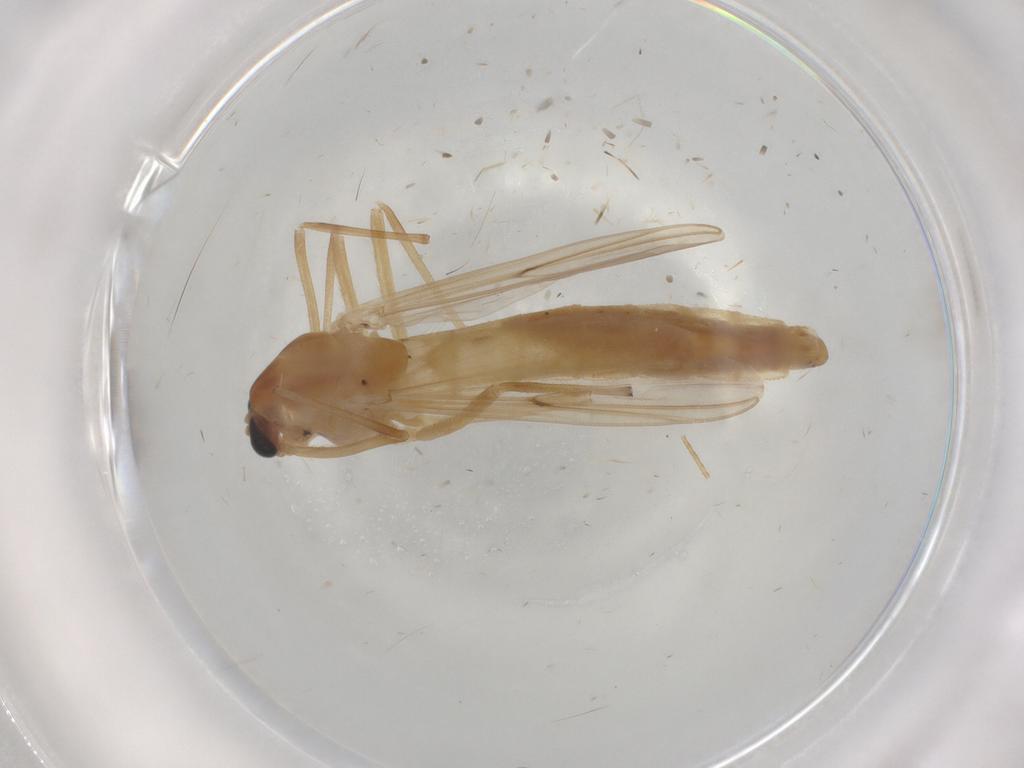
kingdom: Animalia
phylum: Arthropoda
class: Insecta
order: Diptera
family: Chironomidae
